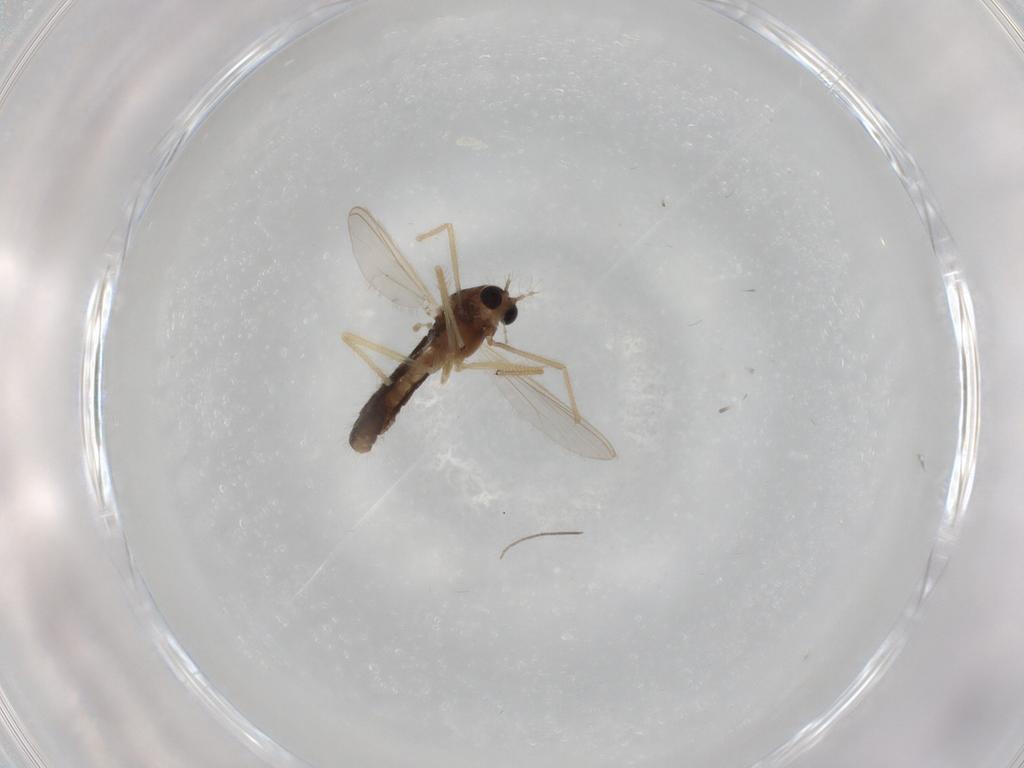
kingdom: Animalia
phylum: Arthropoda
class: Insecta
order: Diptera
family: Chironomidae
